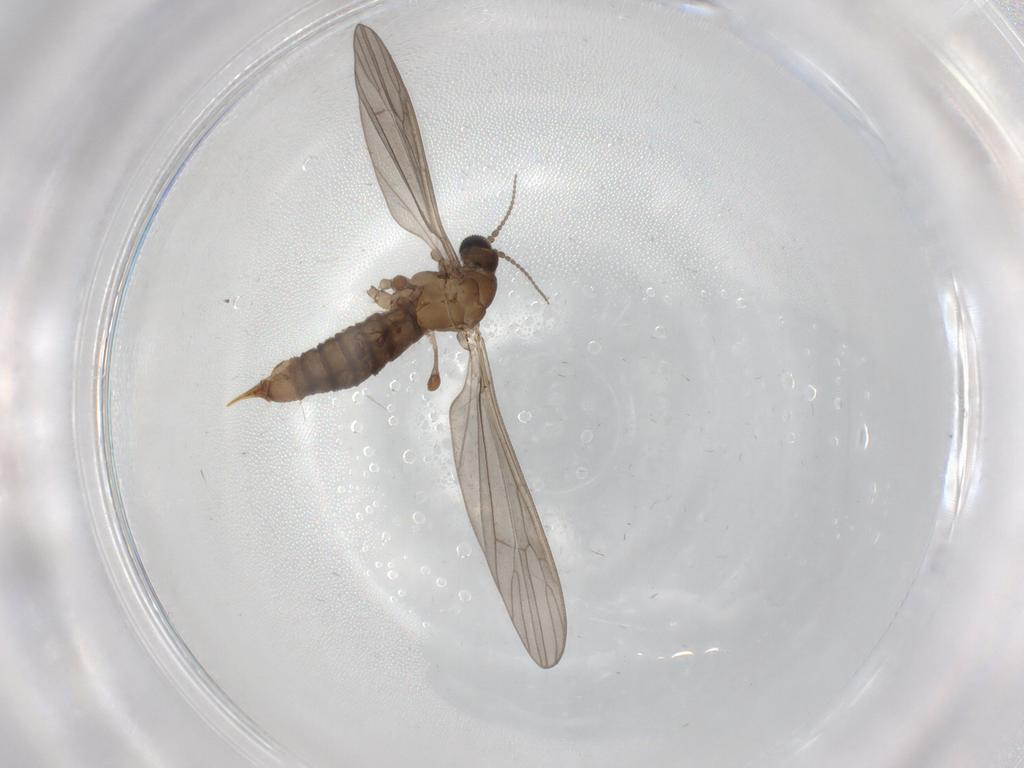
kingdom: Animalia
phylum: Arthropoda
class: Insecta
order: Diptera
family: Limoniidae
